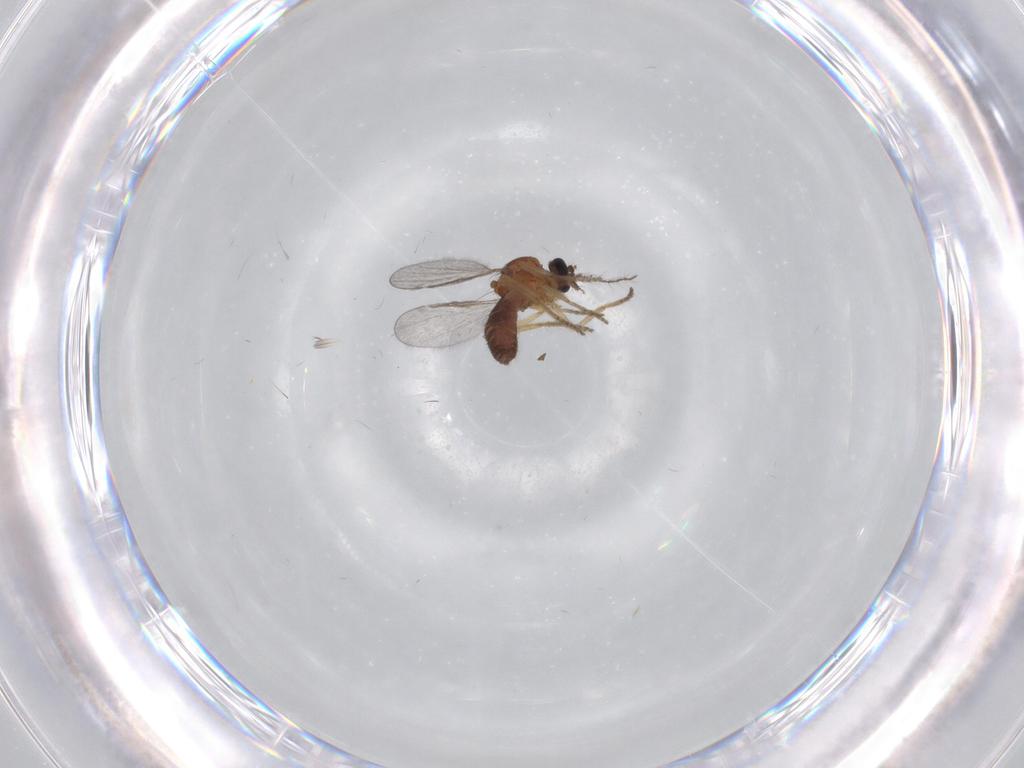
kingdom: Animalia
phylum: Arthropoda
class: Insecta
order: Diptera
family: Ceratopogonidae
